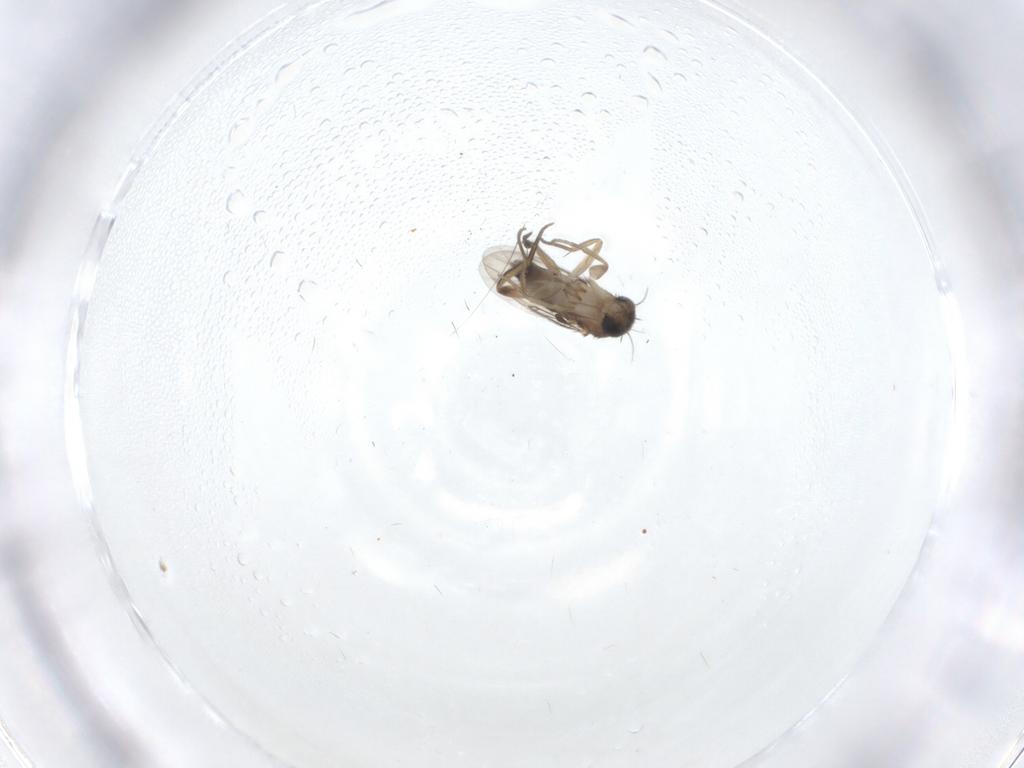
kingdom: Animalia
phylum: Arthropoda
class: Insecta
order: Diptera
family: Phoridae
